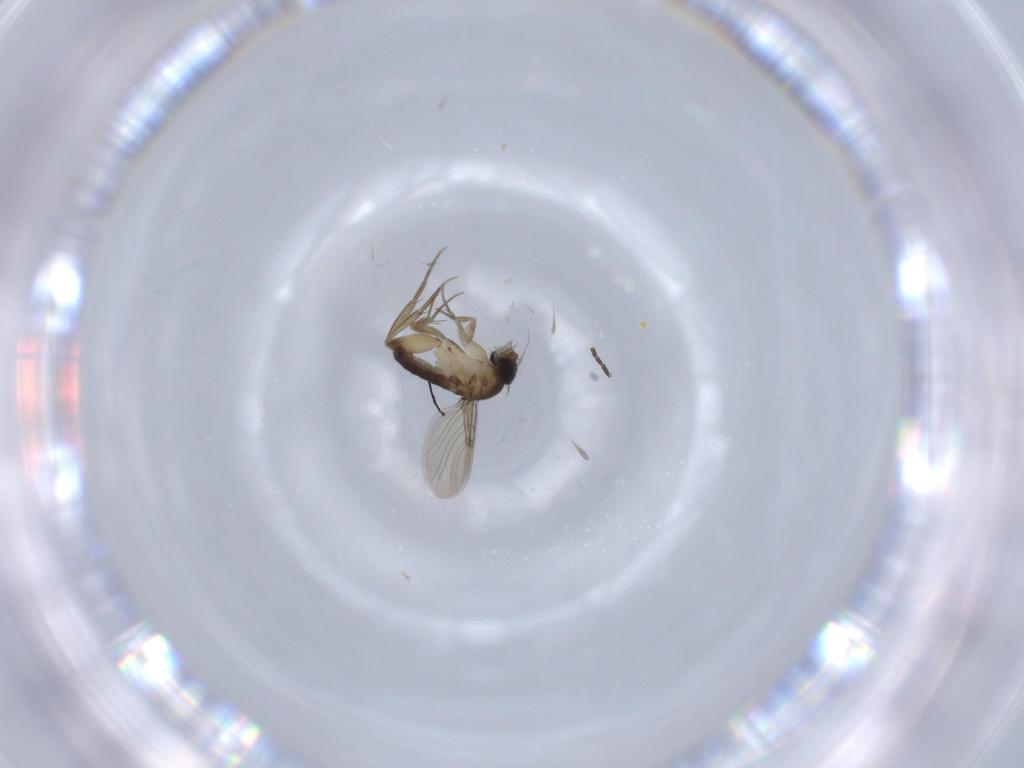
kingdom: Animalia
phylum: Arthropoda
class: Insecta
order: Diptera
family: Phoridae
